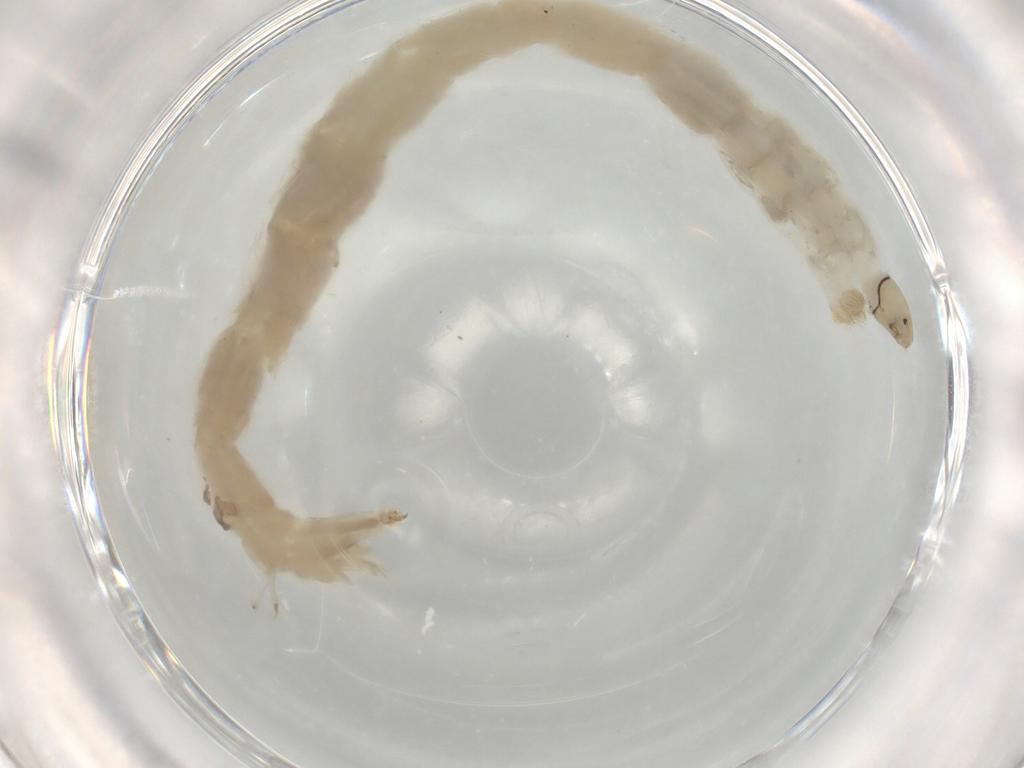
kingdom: Animalia
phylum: Arthropoda
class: Insecta
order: Diptera
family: Chironomidae
